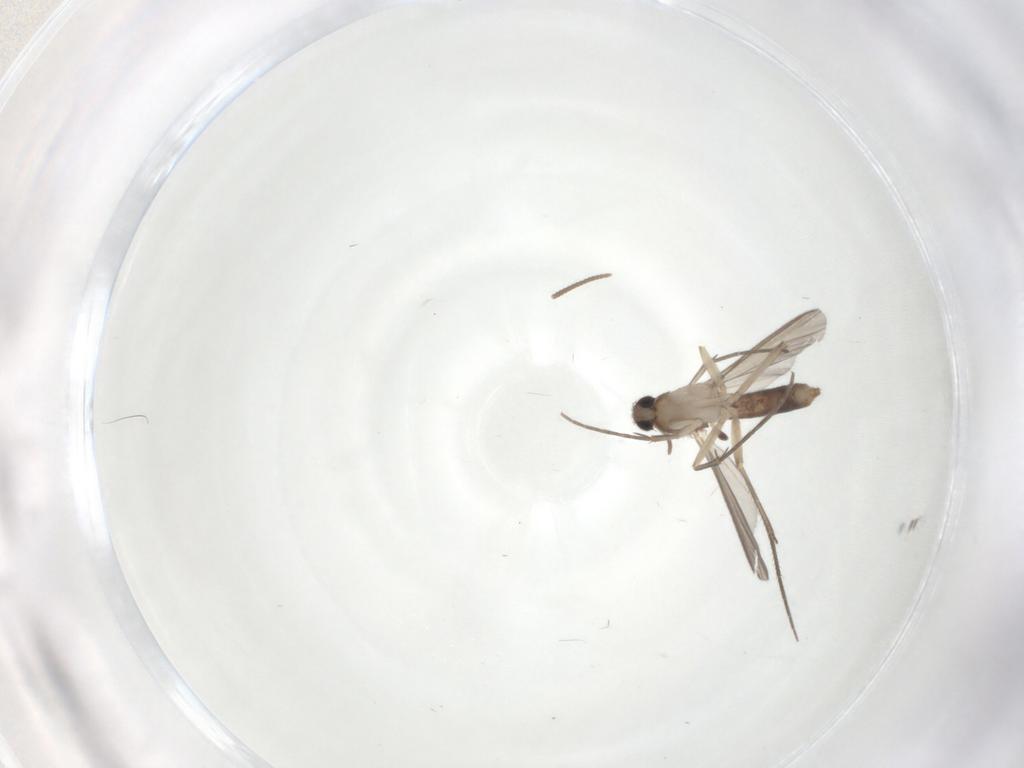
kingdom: Animalia
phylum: Arthropoda
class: Insecta
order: Diptera
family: Mycetophilidae
